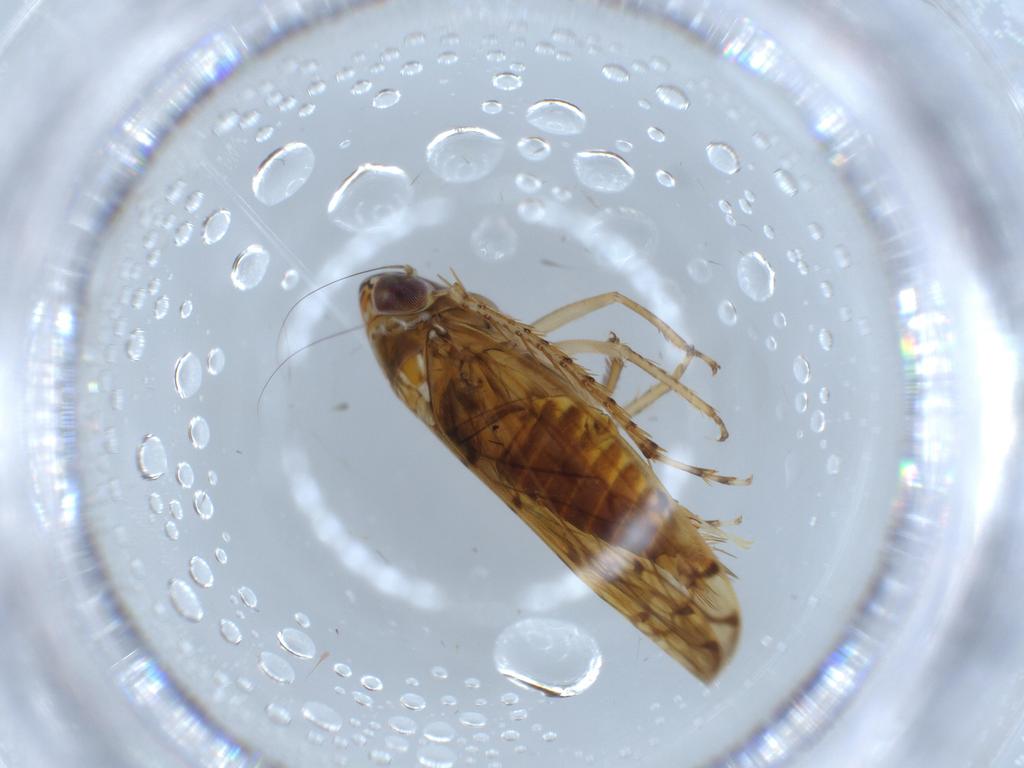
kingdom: Animalia
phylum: Arthropoda
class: Insecta
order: Hemiptera
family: Cicadellidae
